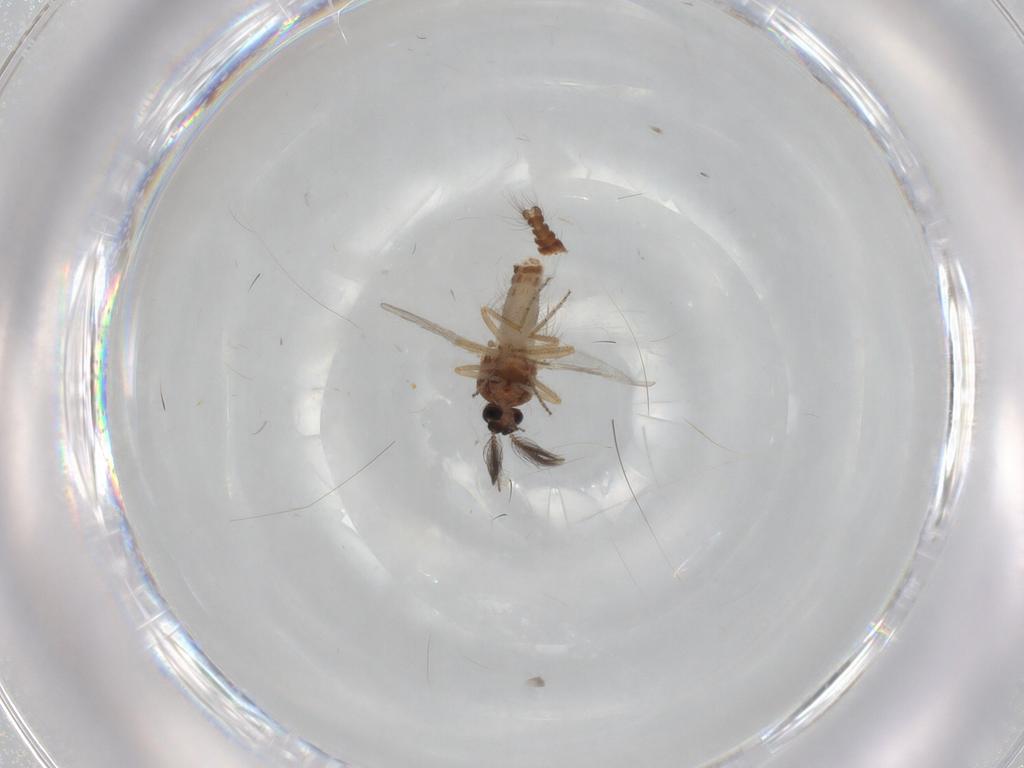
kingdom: Animalia
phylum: Arthropoda
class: Insecta
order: Diptera
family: Ceratopogonidae
